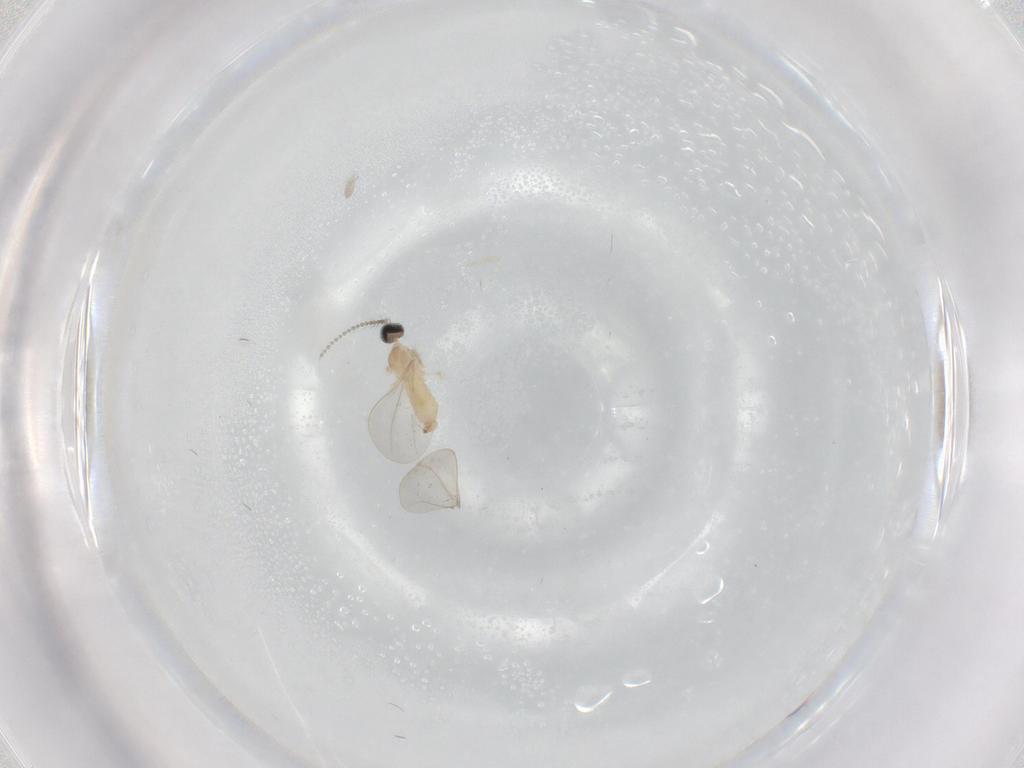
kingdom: Animalia
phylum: Arthropoda
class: Insecta
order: Diptera
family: Cecidomyiidae
